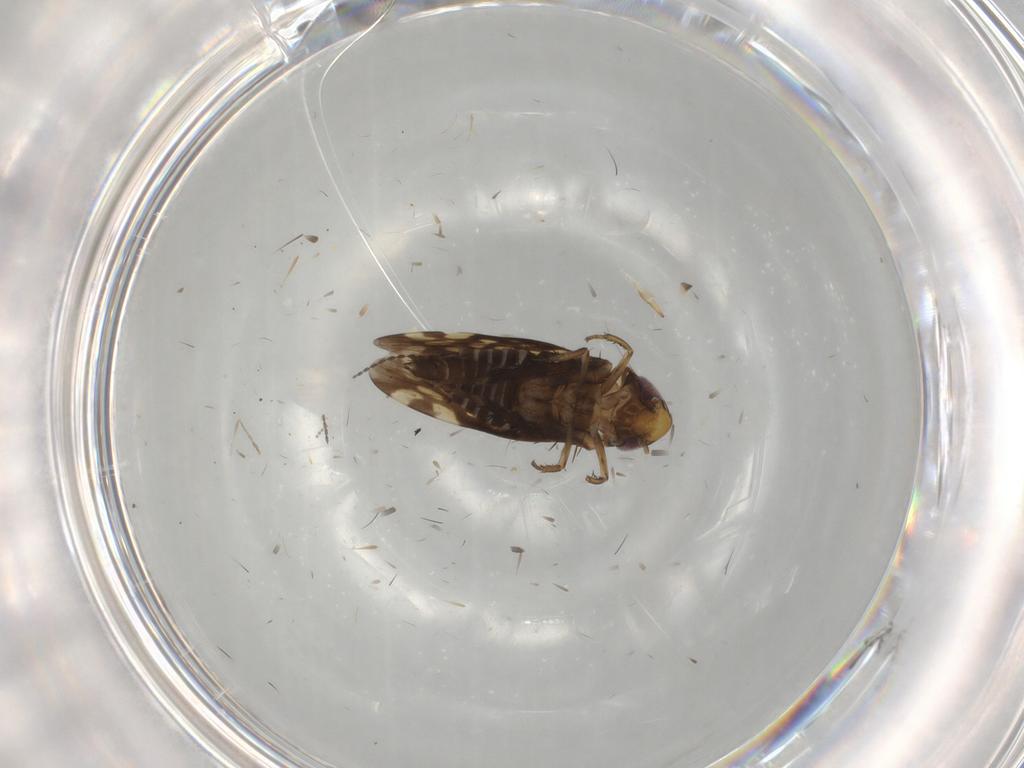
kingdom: Animalia
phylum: Arthropoda
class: Insecta
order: Hemiptera
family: Cicadellidae
